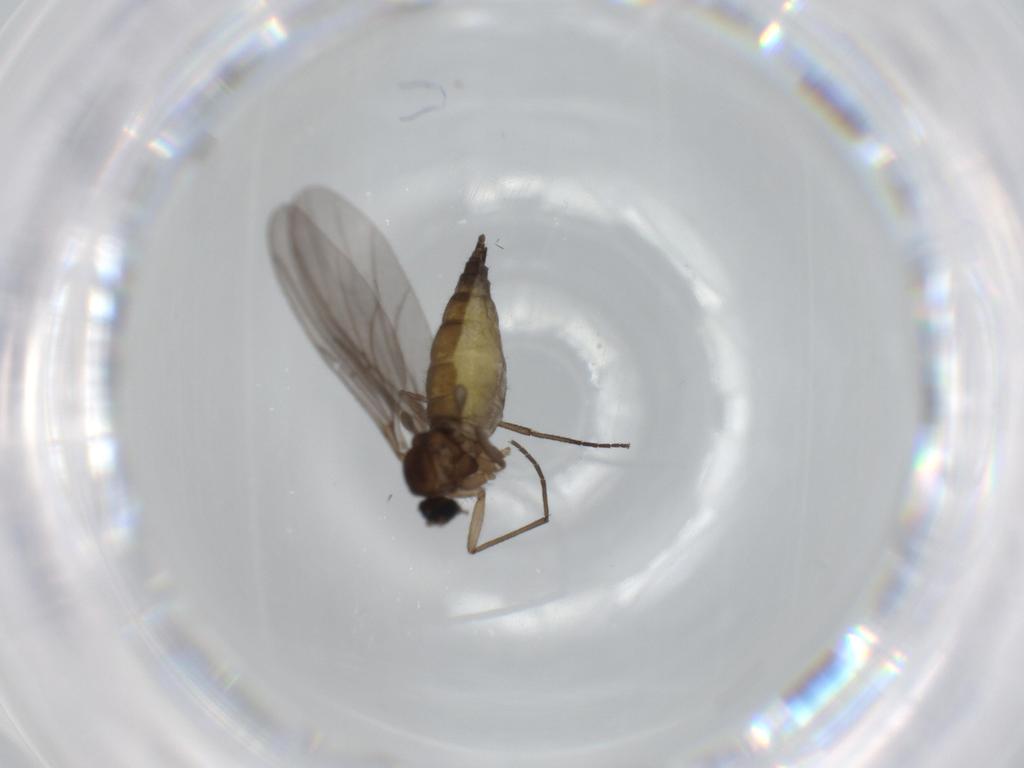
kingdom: Animalia
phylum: Arthropoda
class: Insecta
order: Diptera
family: Sciaridae
